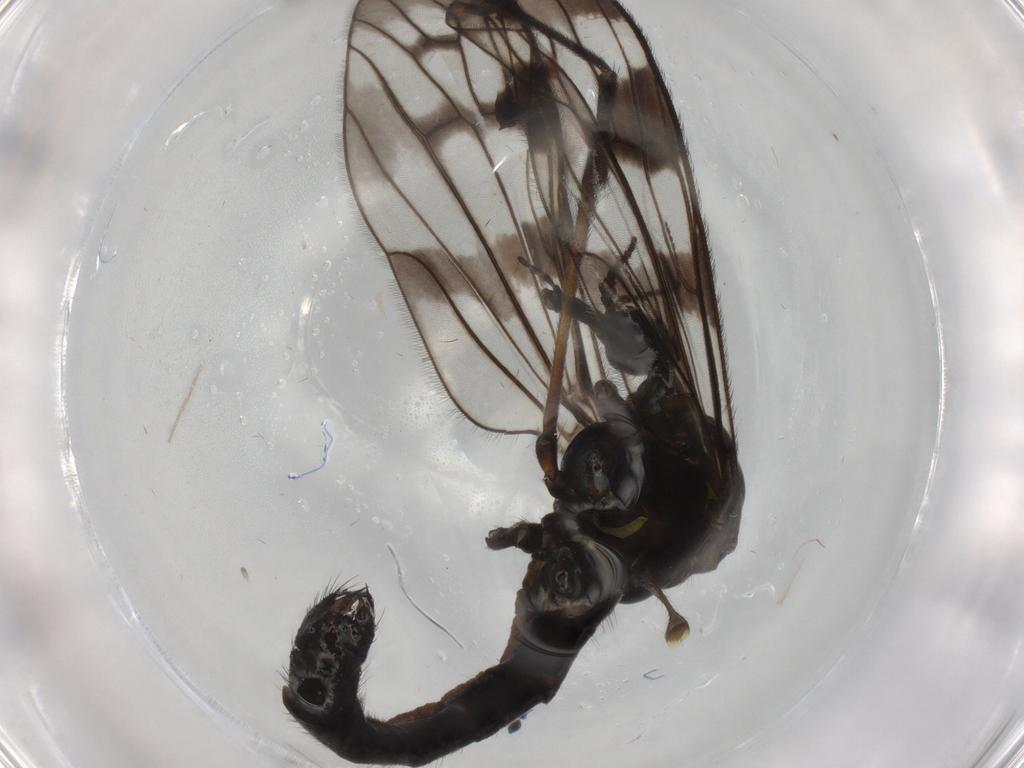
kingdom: Animalia
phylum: Arthropoda
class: Insecta
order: Diptera
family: Limoniidae
